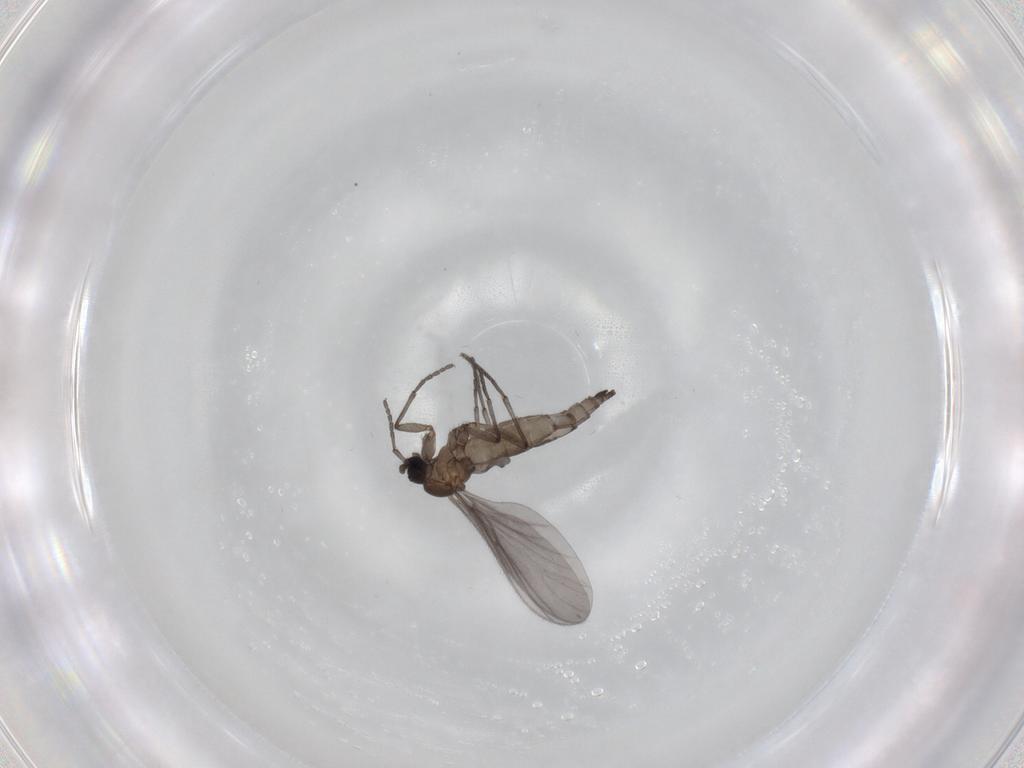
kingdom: Animalia
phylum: Arthropoda
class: Insecta
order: Diptera
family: Sciaridae
